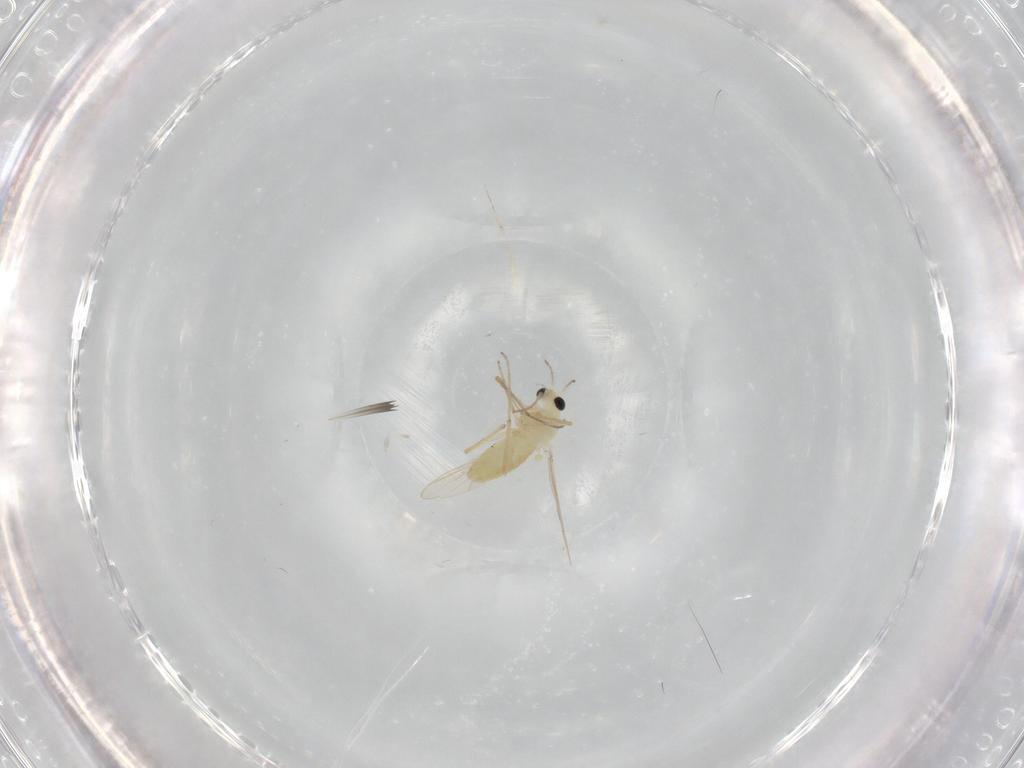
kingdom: Animalia
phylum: Arthropoda
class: Insecta
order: Diptera
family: Chironomidae
